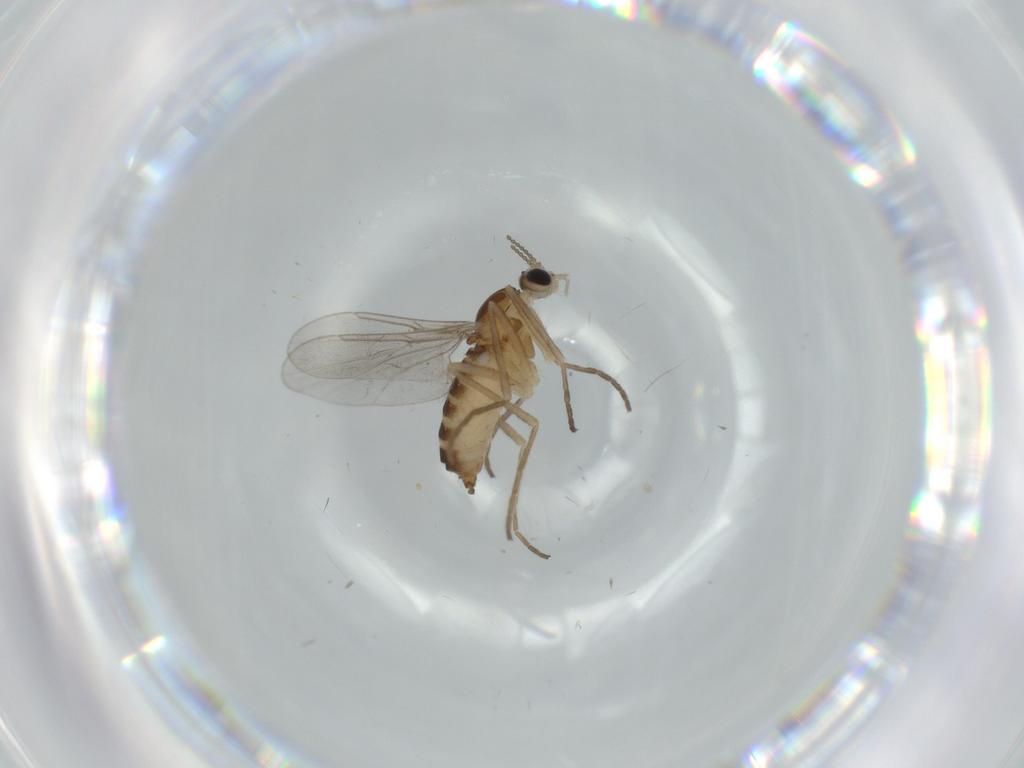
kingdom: Animalia
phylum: Arthropoda
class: Insecta
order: Diptera
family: Cecidomyiidae
